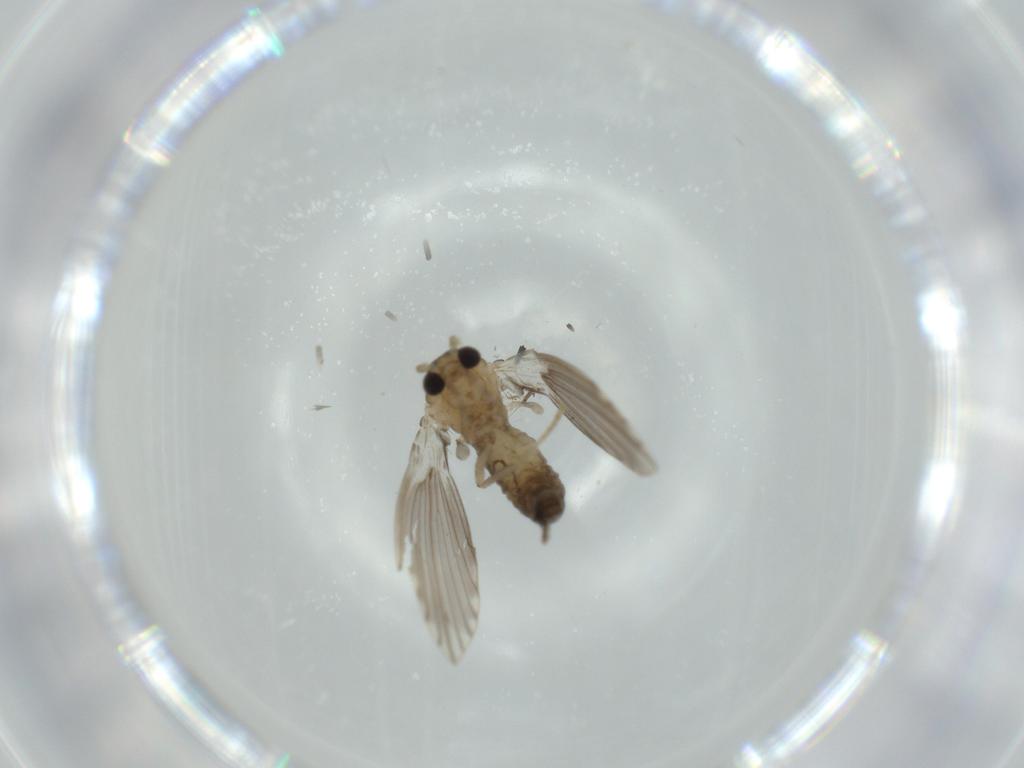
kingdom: Animalia
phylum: Arthropoda
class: Insecta
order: Diptera
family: Psychodidae
